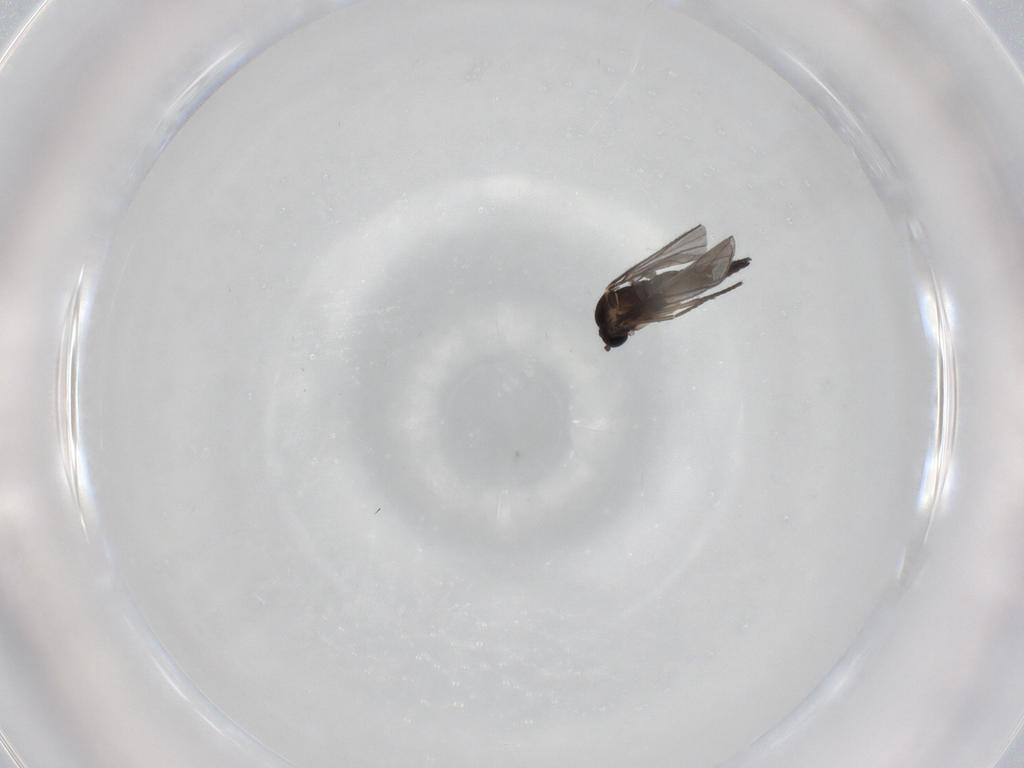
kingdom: Animalia
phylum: Arthropoda
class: Insecta
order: Diptera
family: Sciaridae
